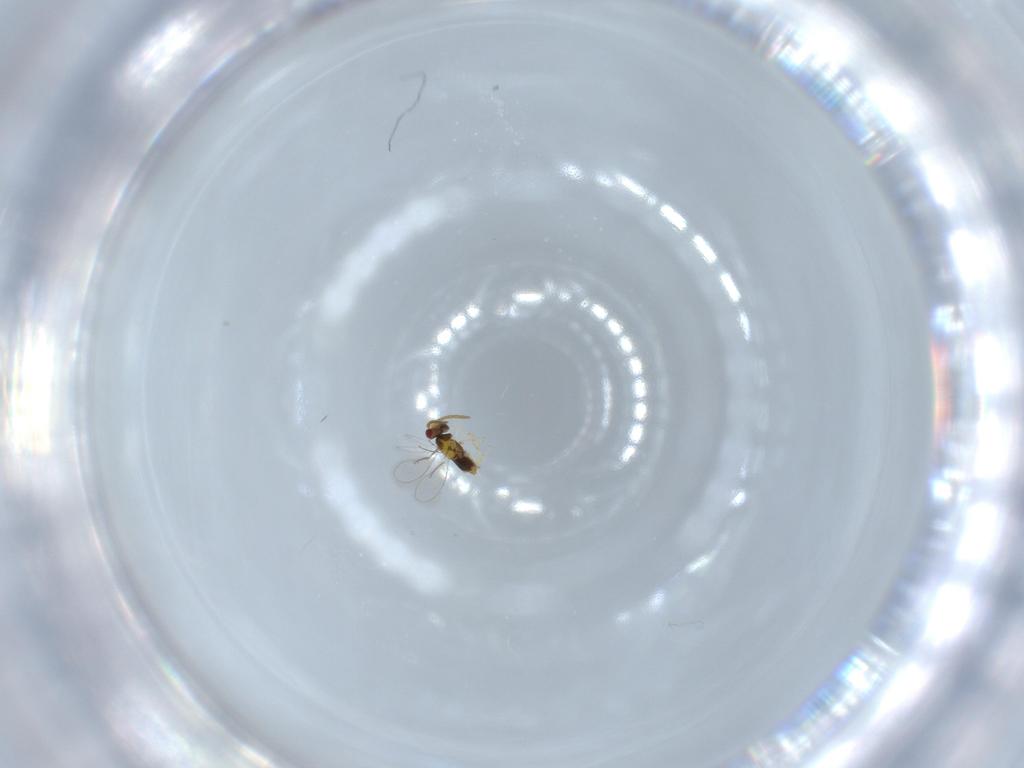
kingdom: Animalia
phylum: Arthropoda
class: Insecta
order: Hymenoptera
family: Aphelinidae
